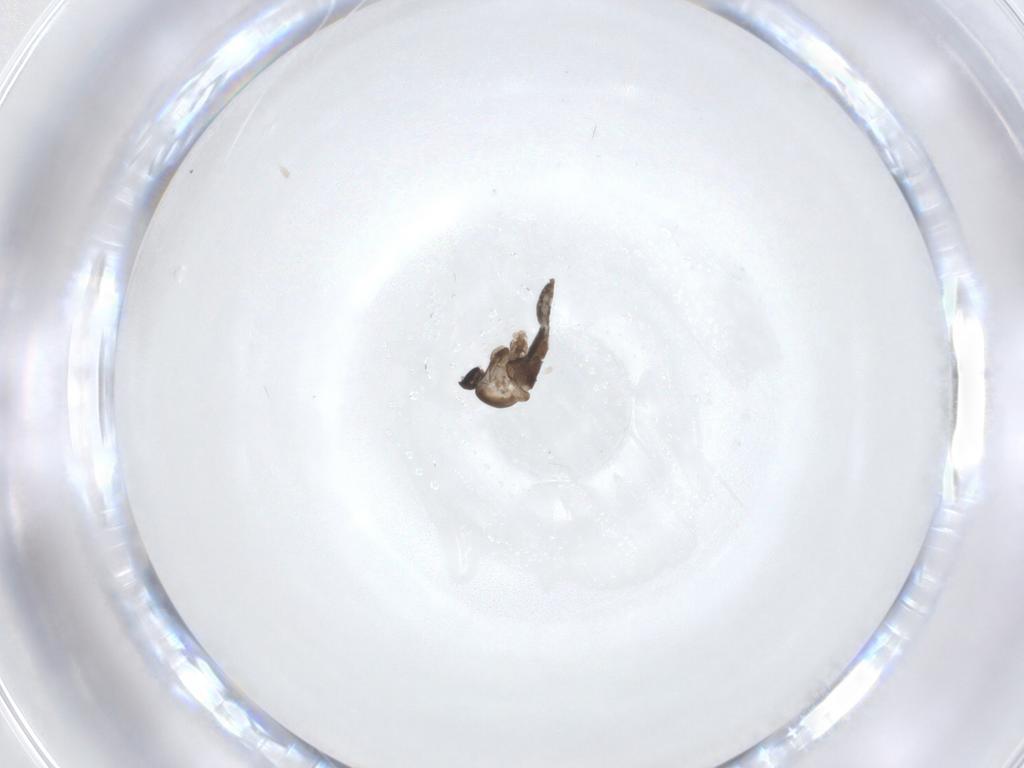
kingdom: Animalia
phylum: Arthropoda
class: Insecta
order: Diptera
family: Cecidomyiidae
